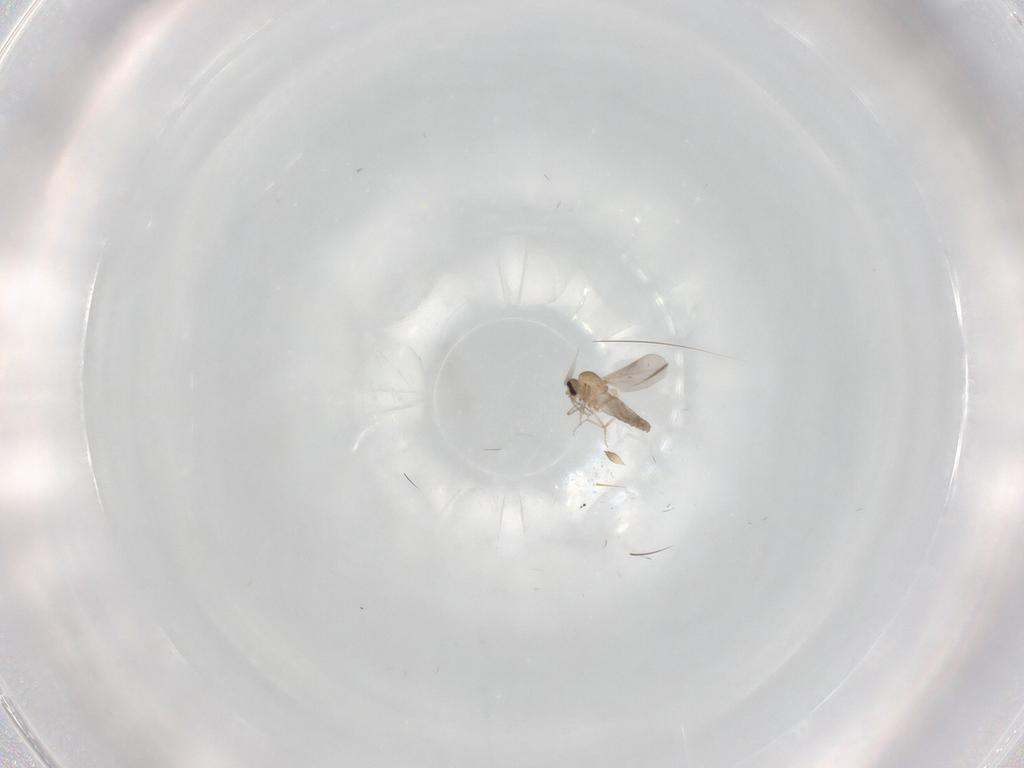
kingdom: Animalia
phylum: Arthropoda
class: Insecta
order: Diptera
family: Ceratopogonidae
